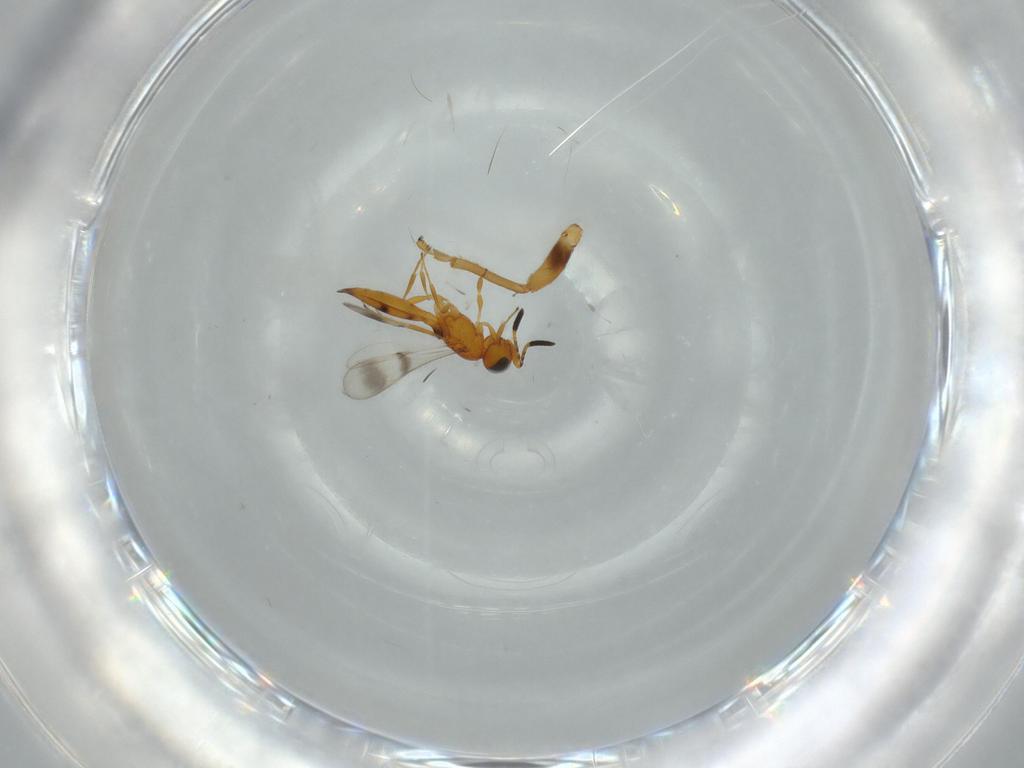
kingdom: Animalia
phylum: Arthropoda
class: Insecta
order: Hymenoptera
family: Scelionidae
